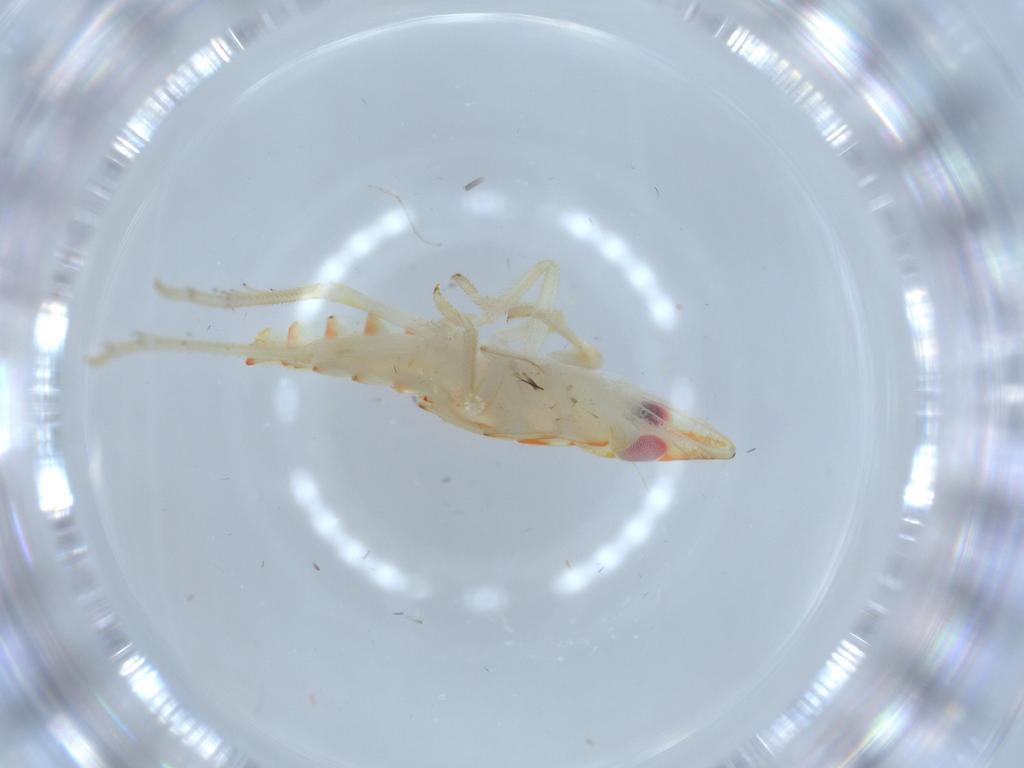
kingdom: Animalia
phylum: Arthropoda
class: Insecta
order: Hemiptera
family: Tropiduchidae
